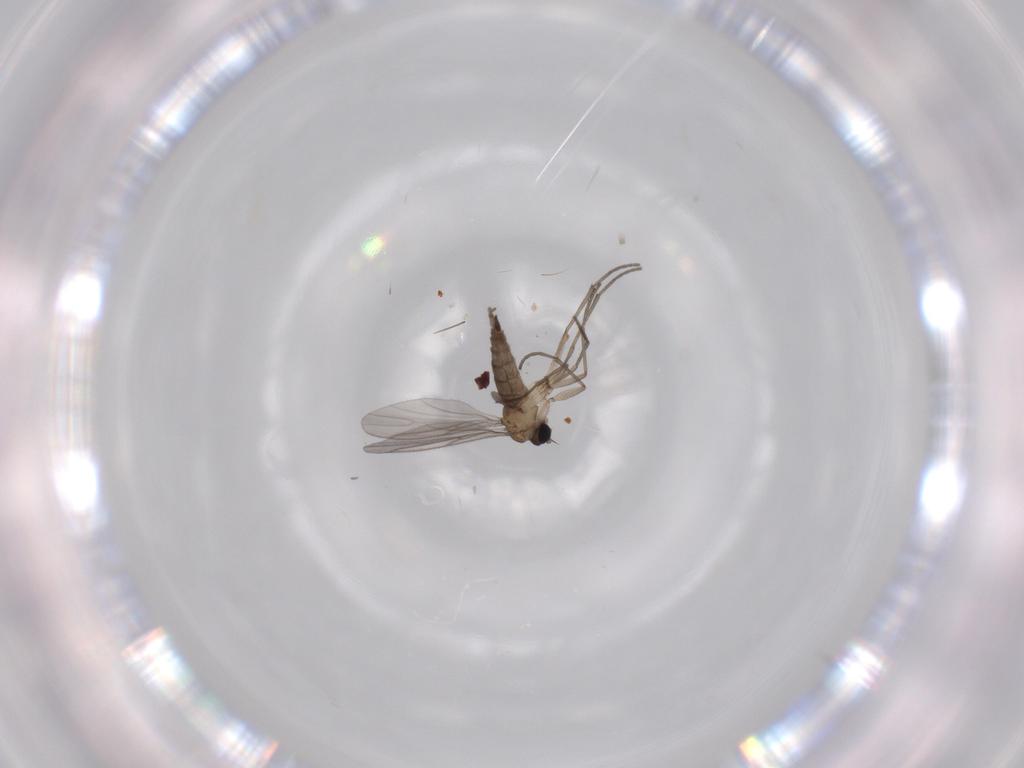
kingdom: Animalia
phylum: Arthropoda
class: Insecta
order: Diptera
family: Sciaridae
